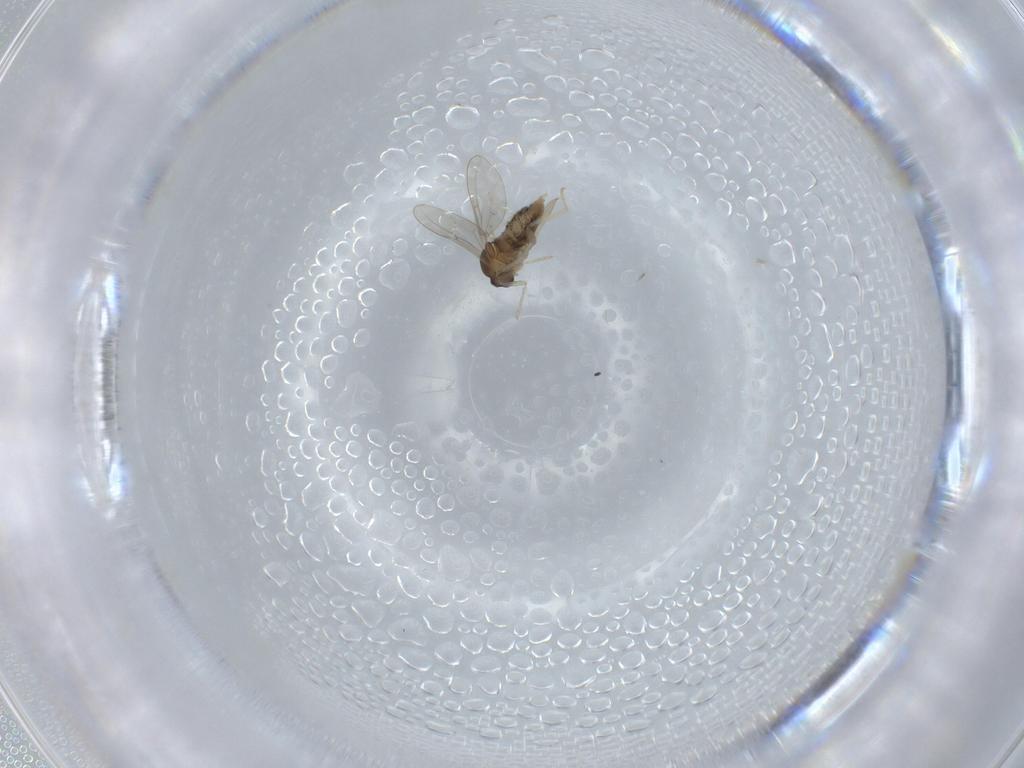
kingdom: Animalia
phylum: Arthropoda
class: Insecta
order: Diptera
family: Cecidomyiidae
